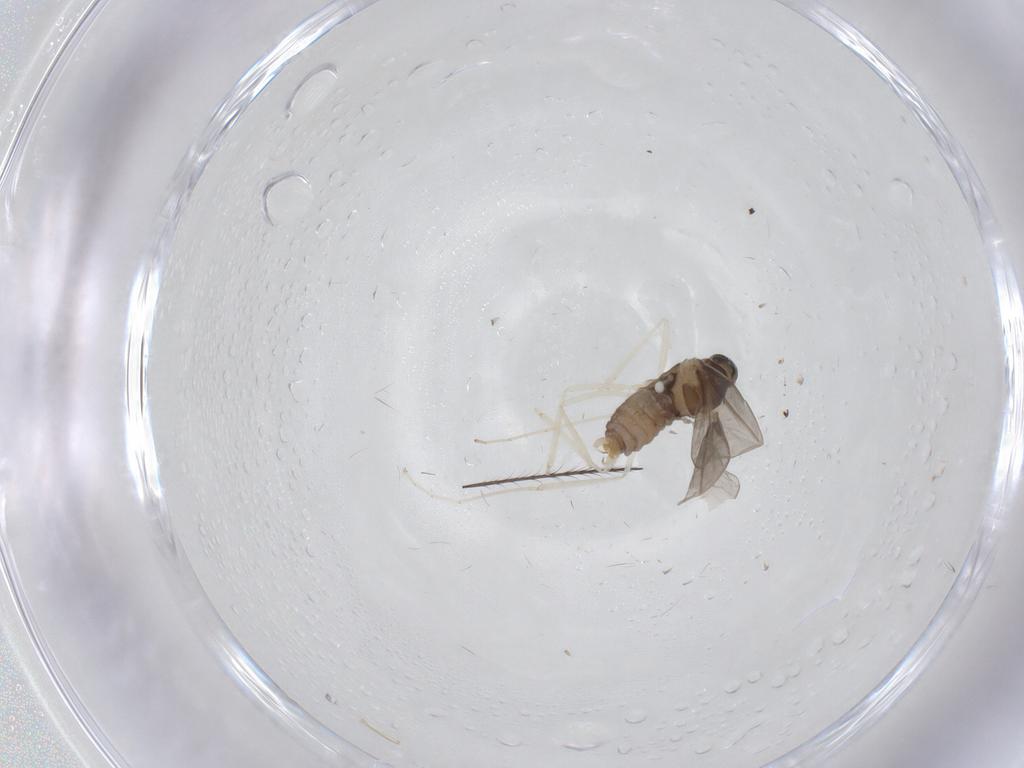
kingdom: Animalia
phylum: Arthropoda
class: Insecta
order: Diptera
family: Cecidomyiidae
